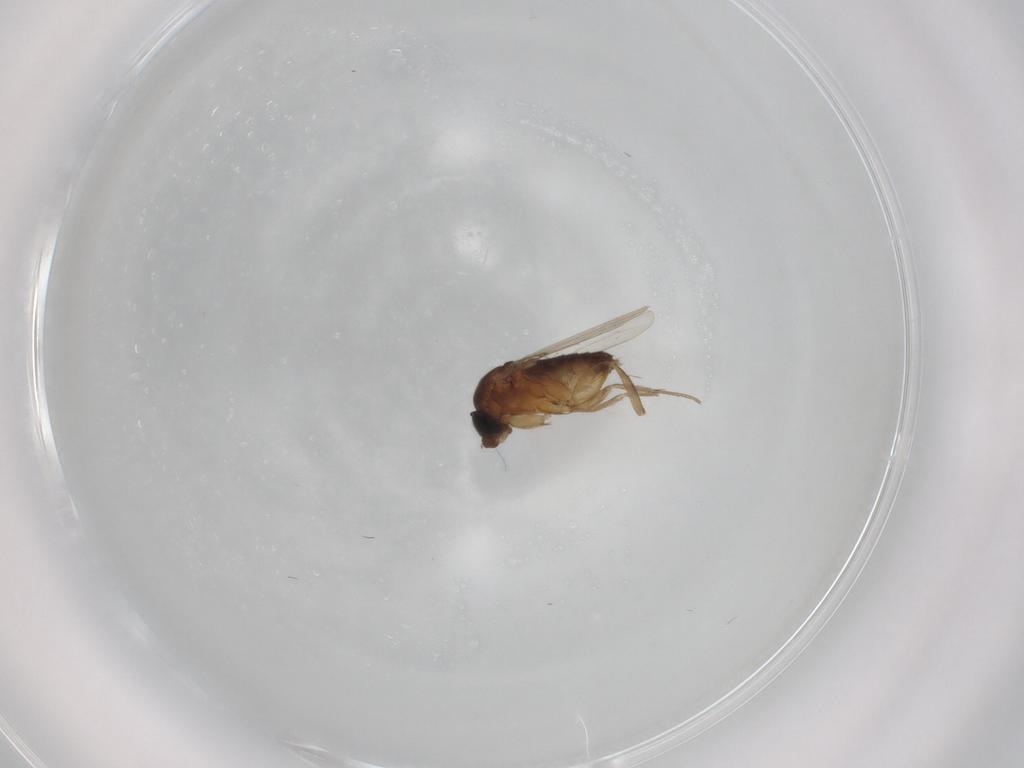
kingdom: Animalia
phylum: Arthropoda
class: Insecta
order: Diptera
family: Phoridae
